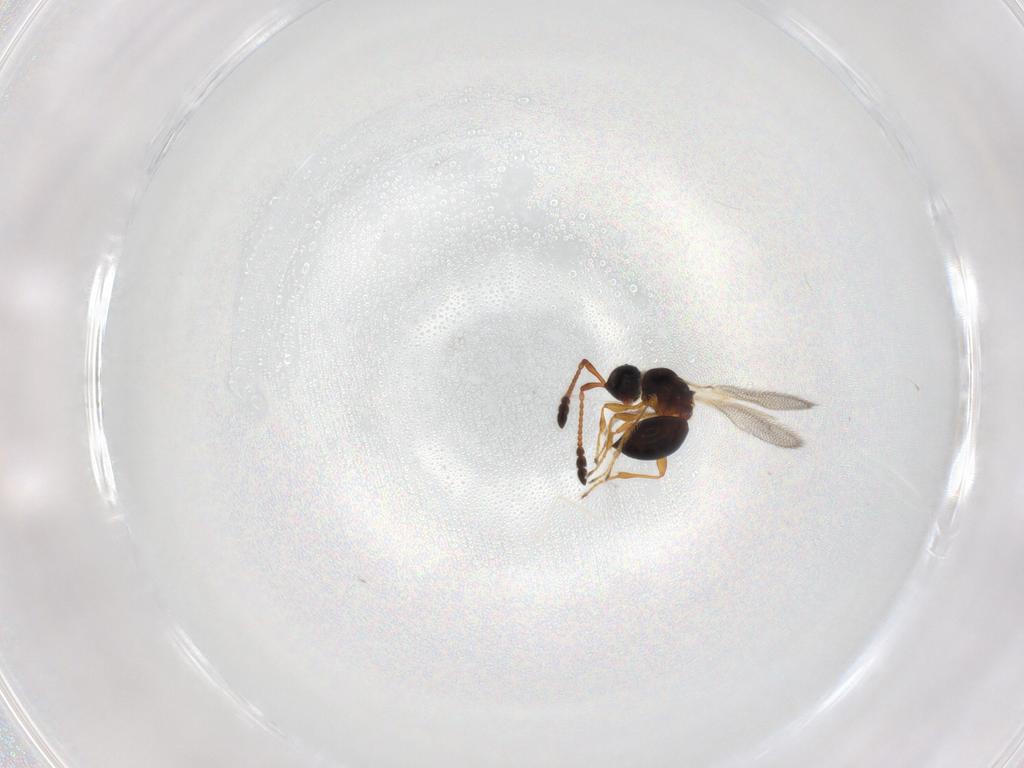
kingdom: Animalia
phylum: Arthropoda
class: Insecta
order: Hymenoptera
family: Diapriidae
